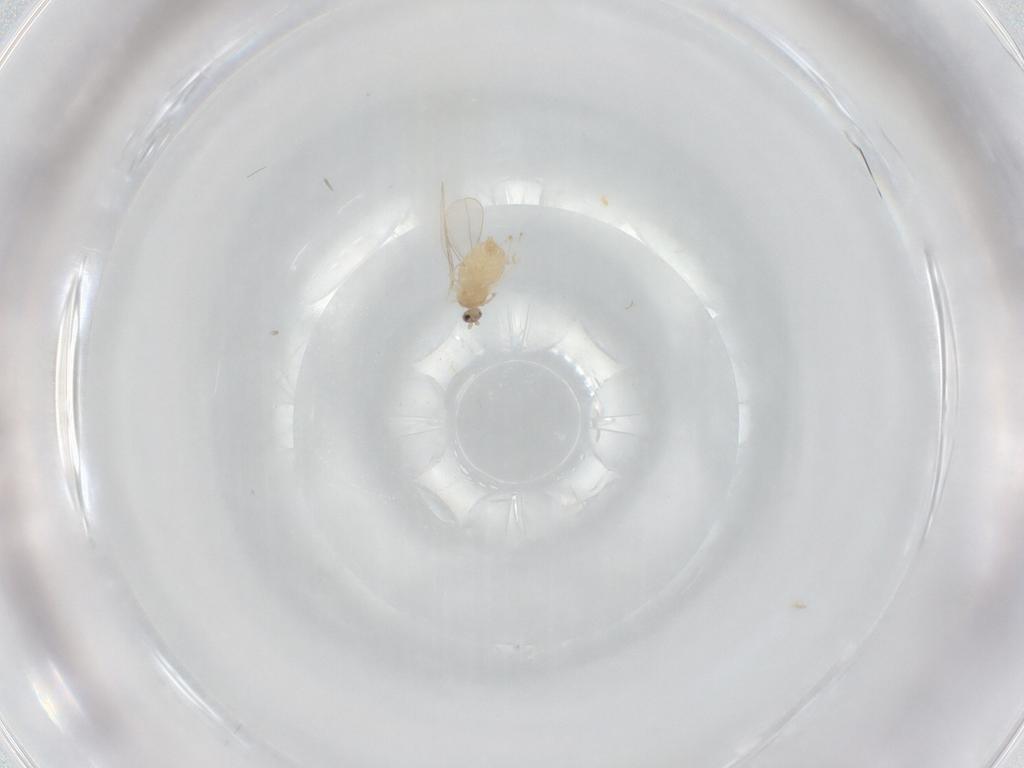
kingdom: Animalia
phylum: Arthropoda
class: Insecta
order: Diptera
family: Cecidomyiidae
